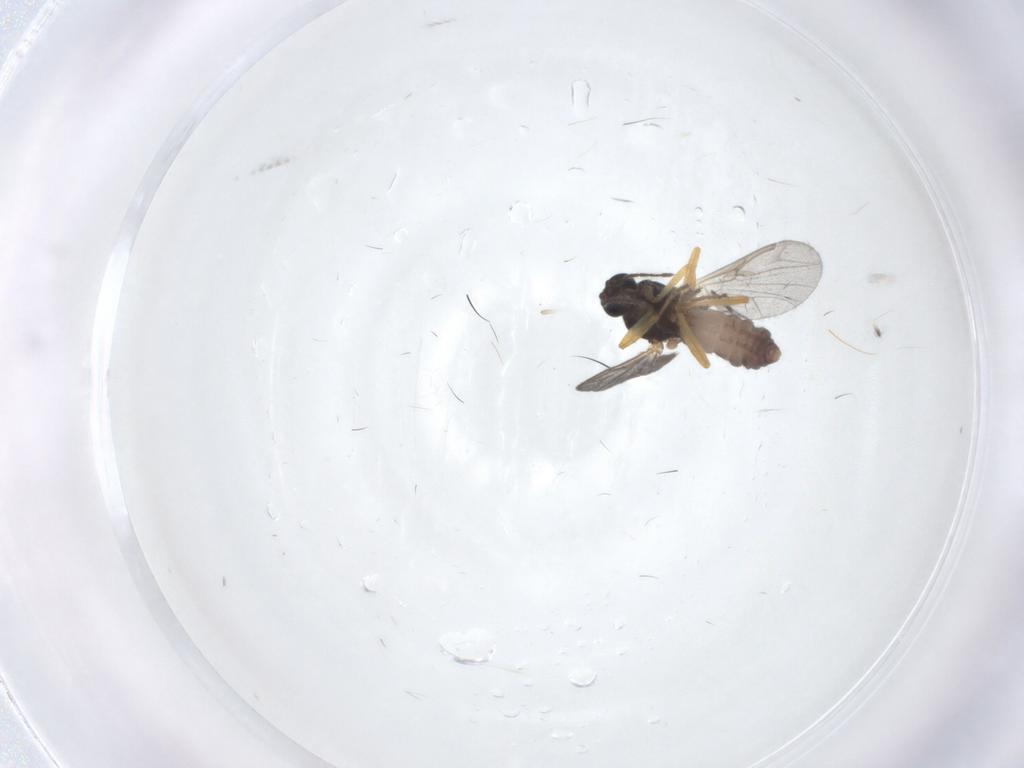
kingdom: Animalia
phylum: Arthropoda
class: Insecta
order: Diptera
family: Ceratopogonidae
